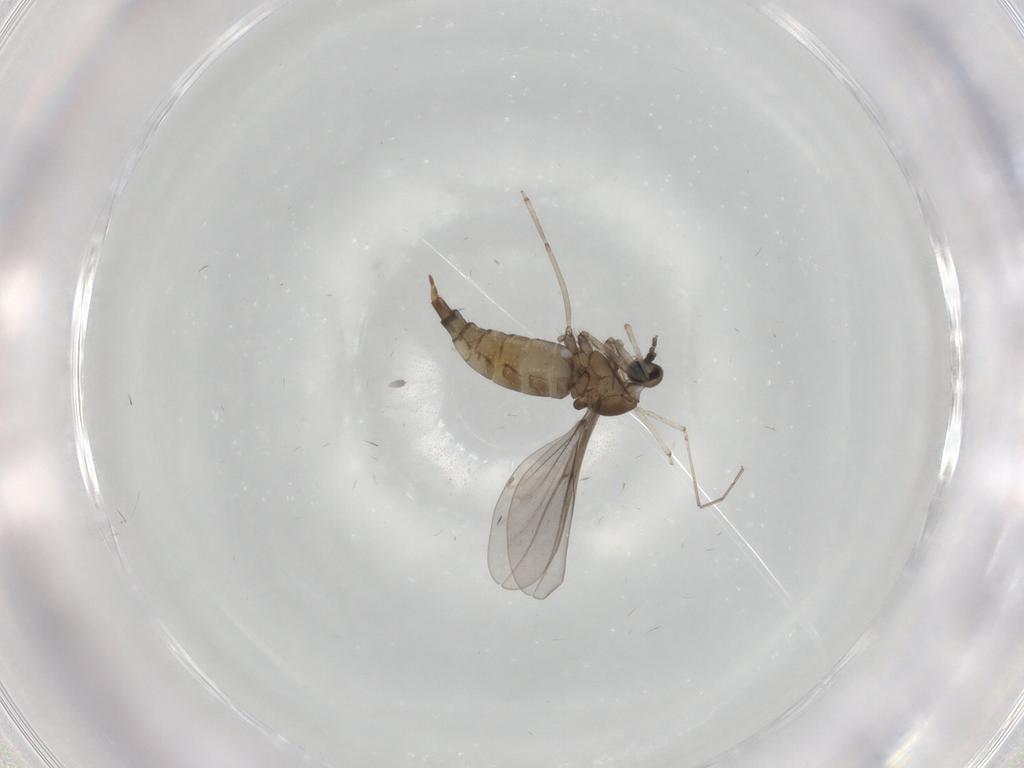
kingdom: Animalia
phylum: Arthropoda
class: Insecta
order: Diptera
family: Cecidomyiidae
